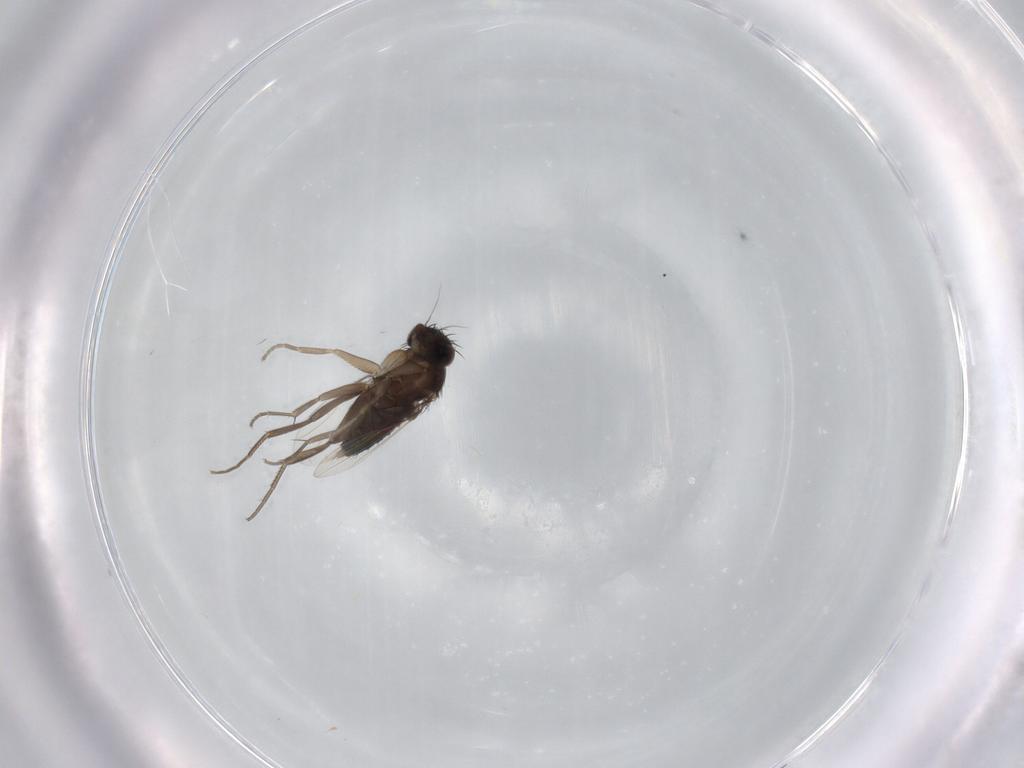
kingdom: Animalia
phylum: Arthropoda
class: Insecta
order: Diptera
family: Phoridae
